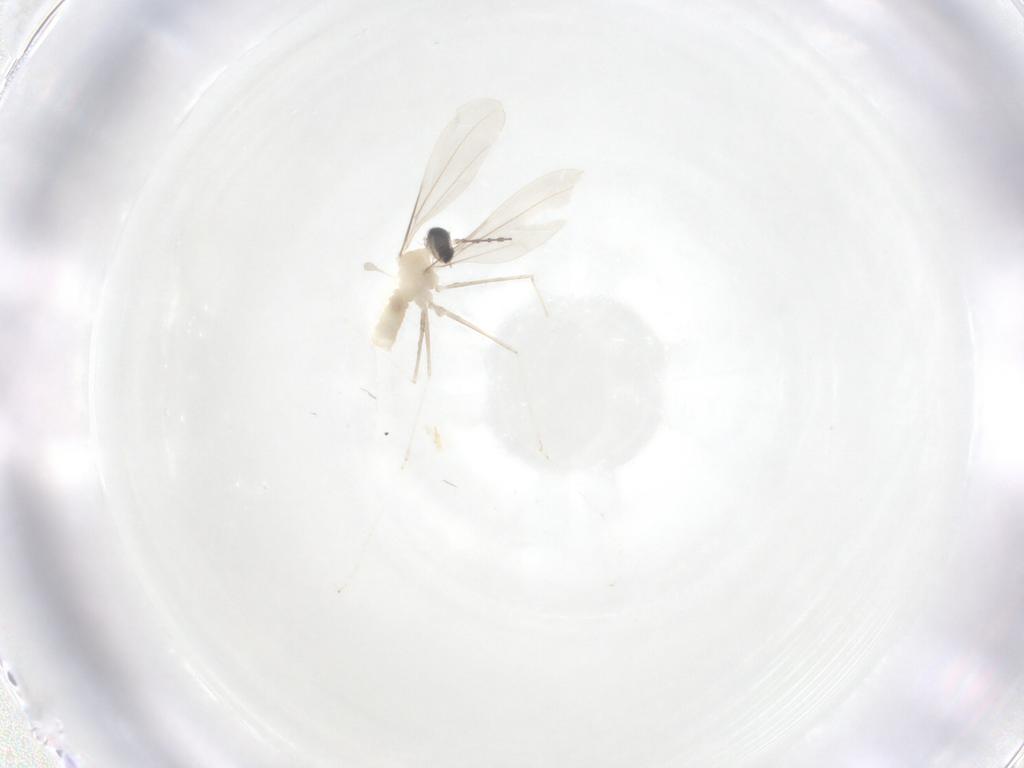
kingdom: Animalia
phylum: Arthropoda
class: Insecta
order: Diptera
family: Cecidomyiidae
